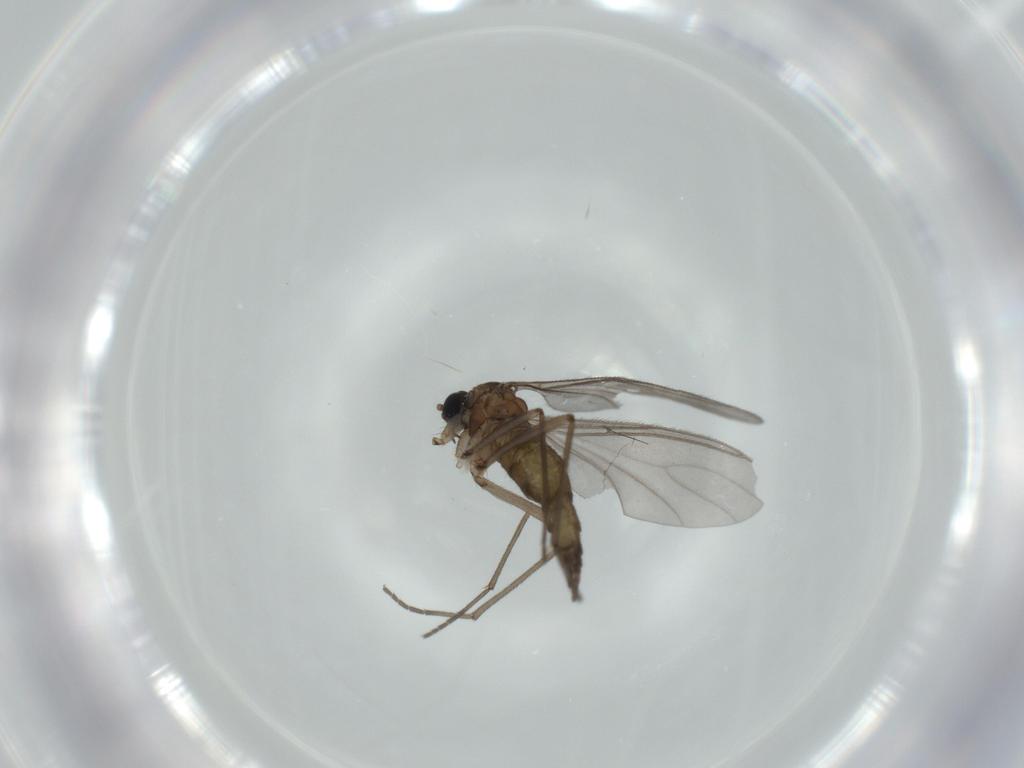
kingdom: Animalia
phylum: Arthropoda
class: Insecta
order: Diptera
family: Sciaridae
